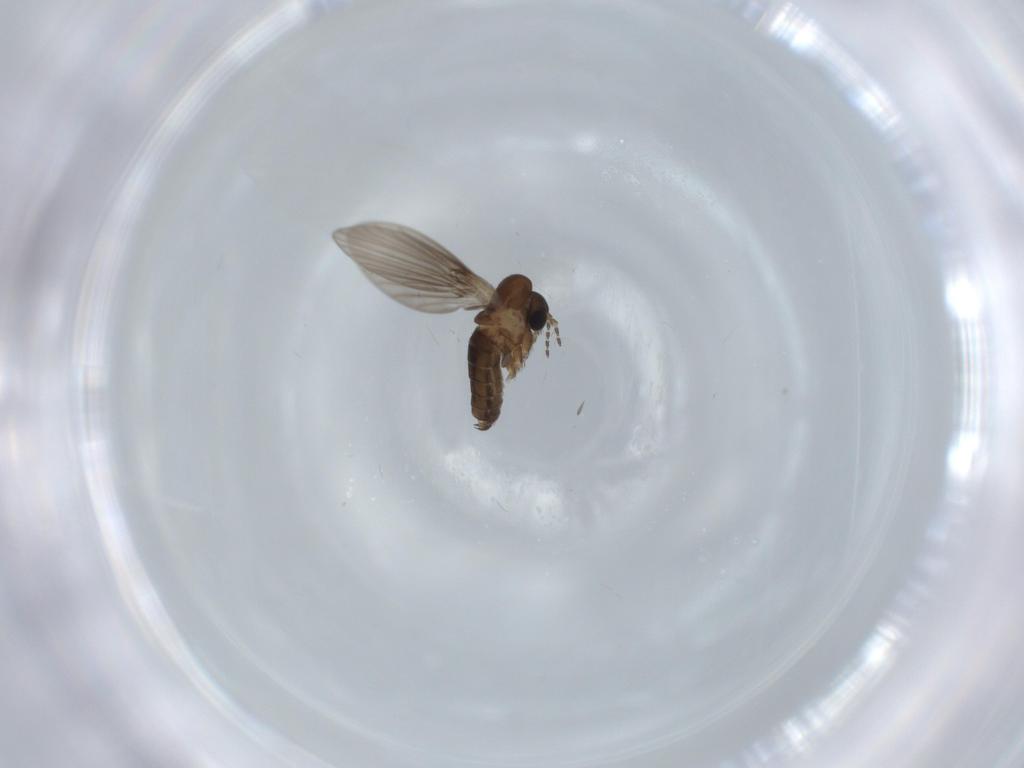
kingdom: Animalia
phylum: Arthropoda
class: Insecta
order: Diptera
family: Psychodidae
